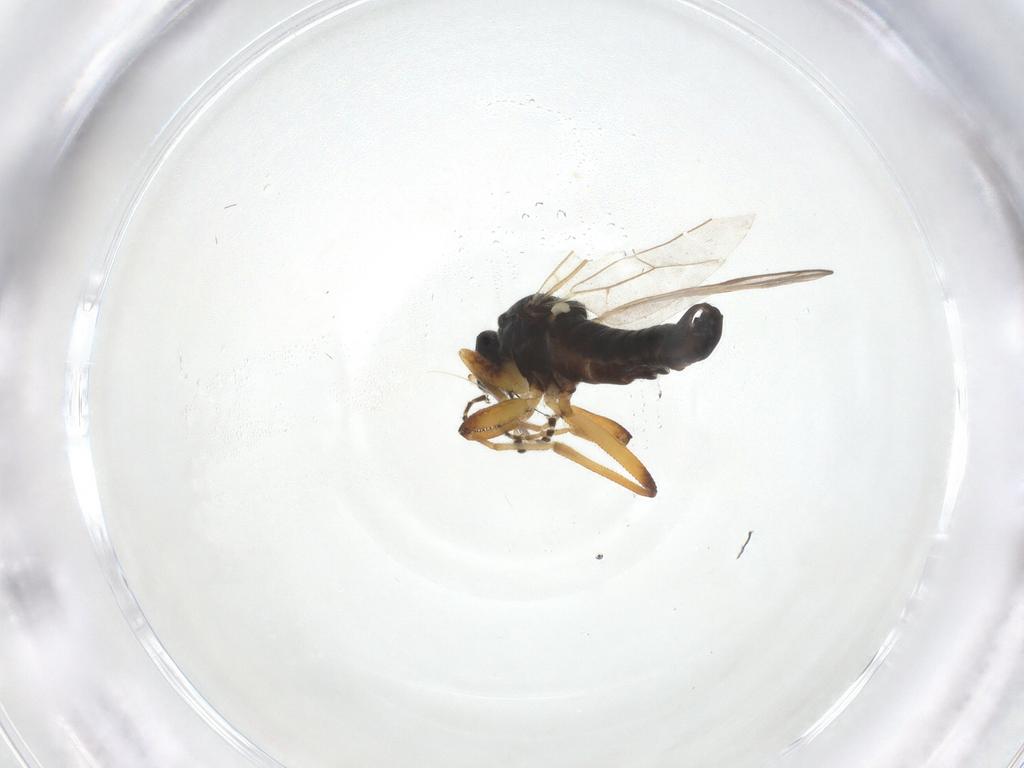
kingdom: Animalia
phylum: Arthropoda
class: Insecta
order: Diptera
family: Hybotidae
